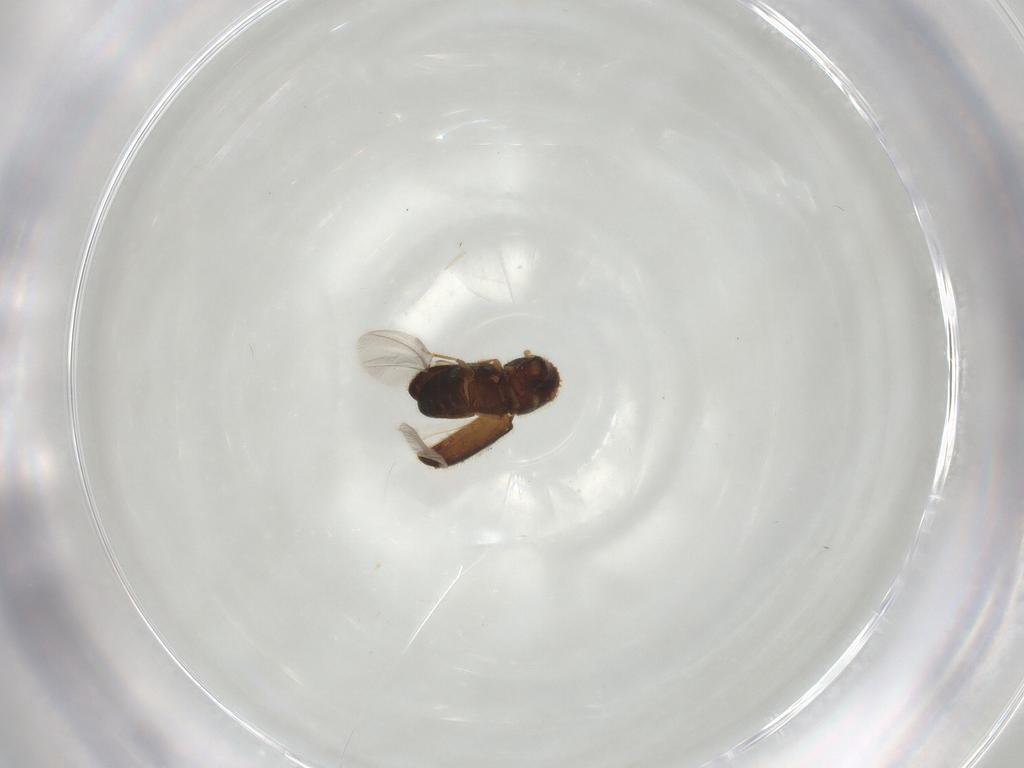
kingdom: Animalia
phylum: Arthropoda
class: Insecta
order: Coleoptera
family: Curculionidae
